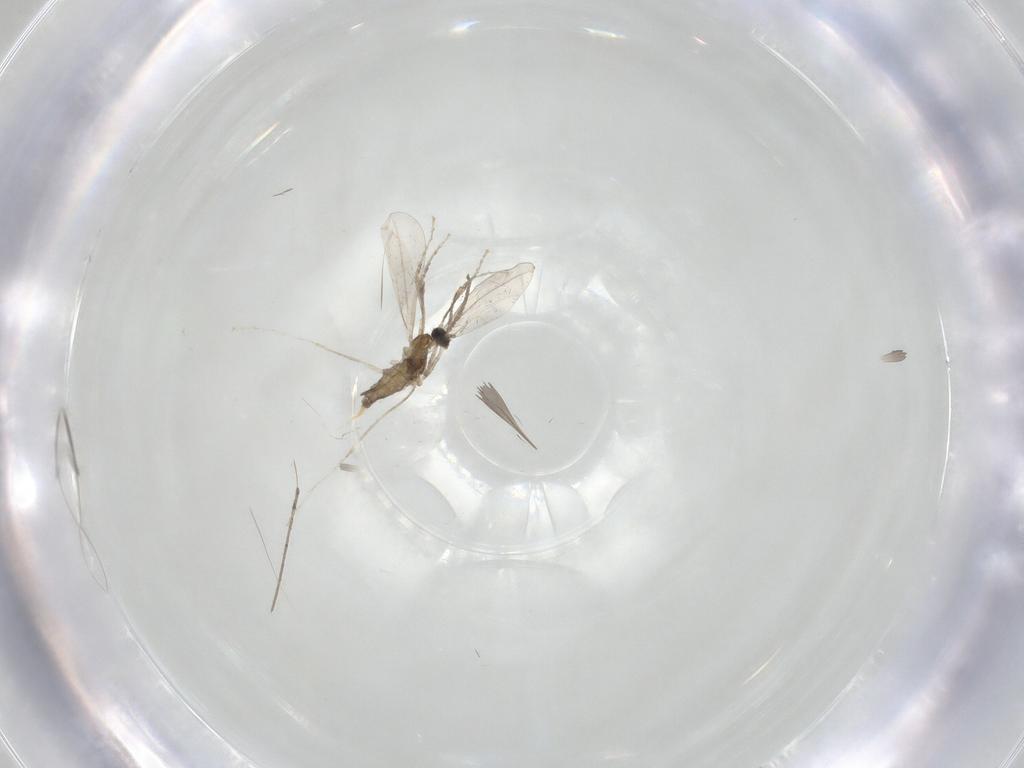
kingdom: Animalia
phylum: Arthropoda
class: Insecta
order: Diptera
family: Cecidomyiidae
